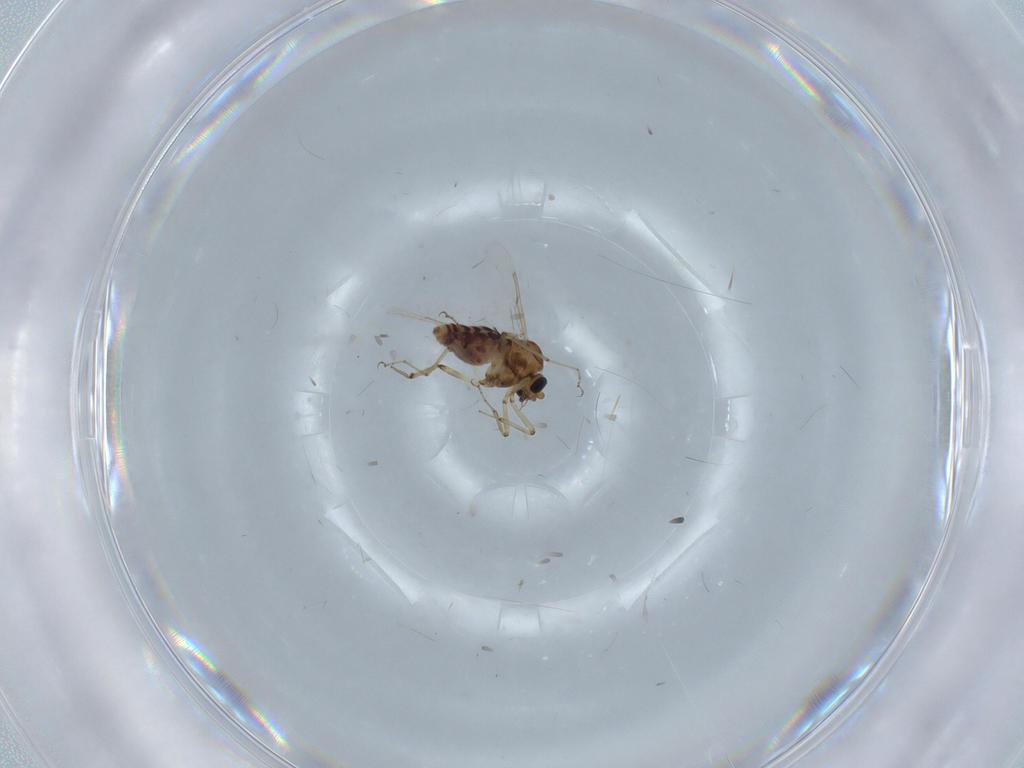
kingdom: Animalia
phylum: Arthropoda
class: Insecta
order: Diptera
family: Ceratopogonidae
